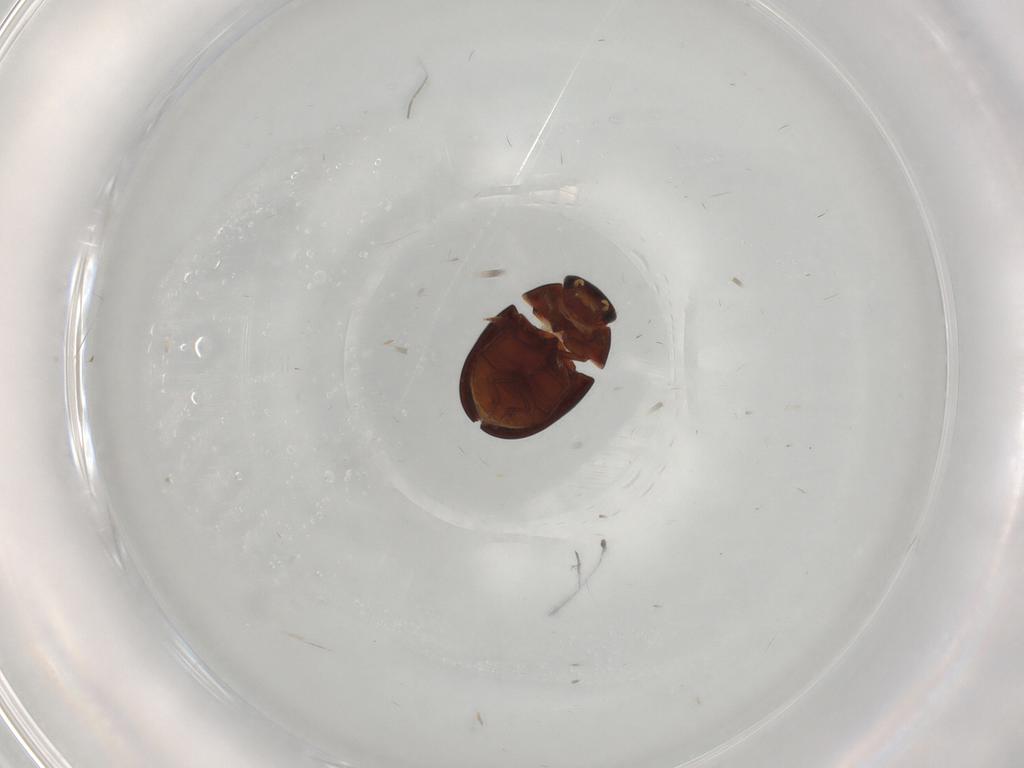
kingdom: Animalia
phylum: Arthropoda
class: Insecta
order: Coleoptera
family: Hydrophilidae
